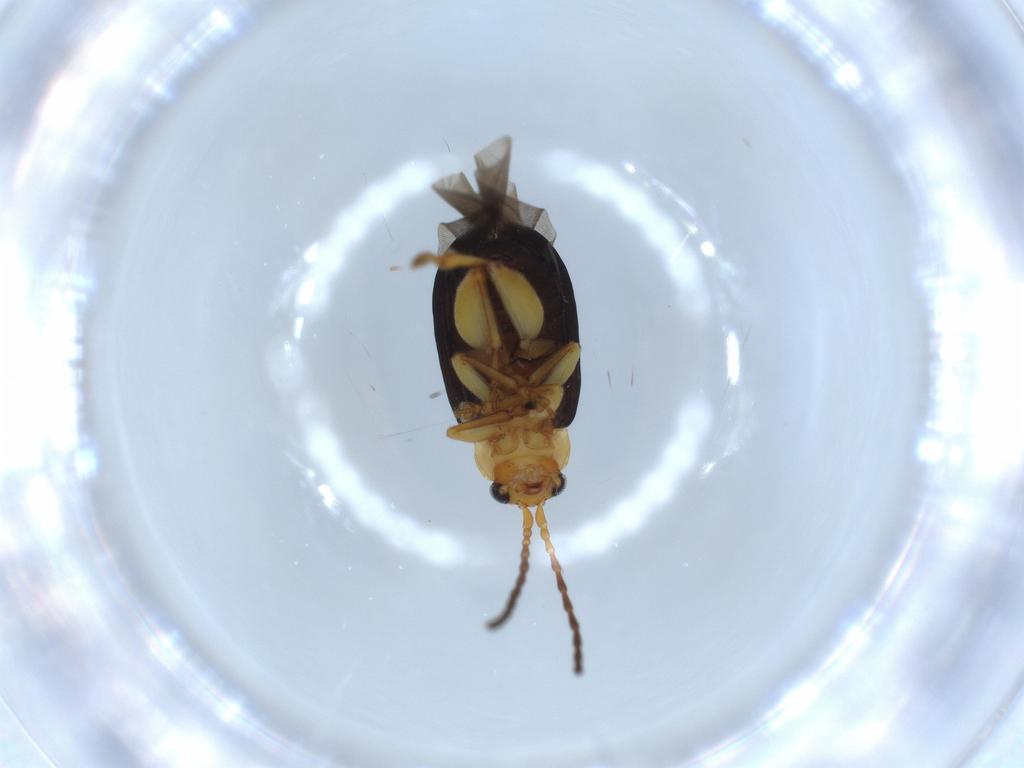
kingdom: Animalia
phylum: Arthropoda
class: Insecta
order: Coleoptera
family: Chrysomelidae
